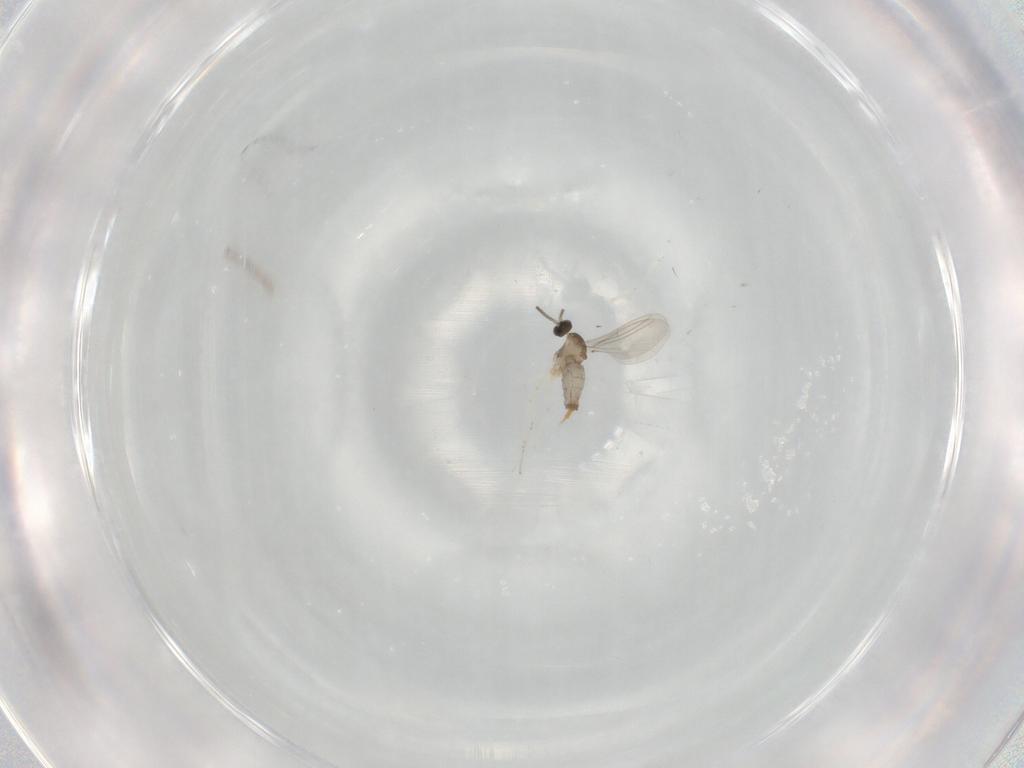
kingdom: Animalia
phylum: Arthropoda
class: Insecta
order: Diptera
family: Cecidomyiidae
